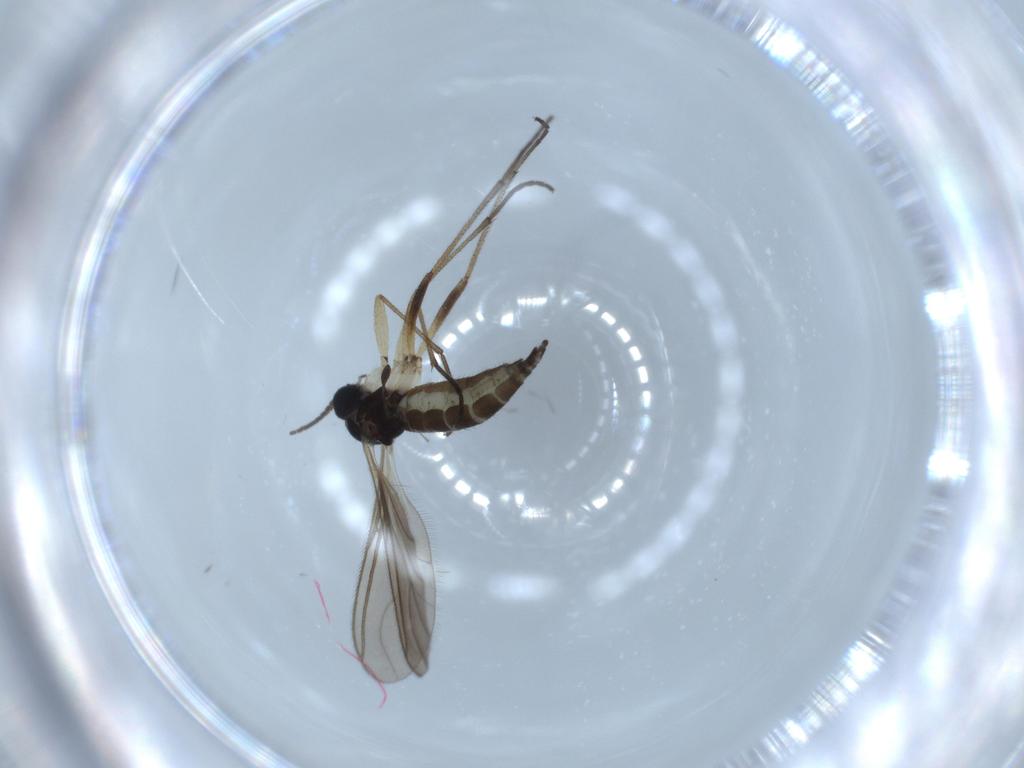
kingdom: Animalia
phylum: Arthropoda
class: Insecta
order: Diptera
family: Sciaridae
